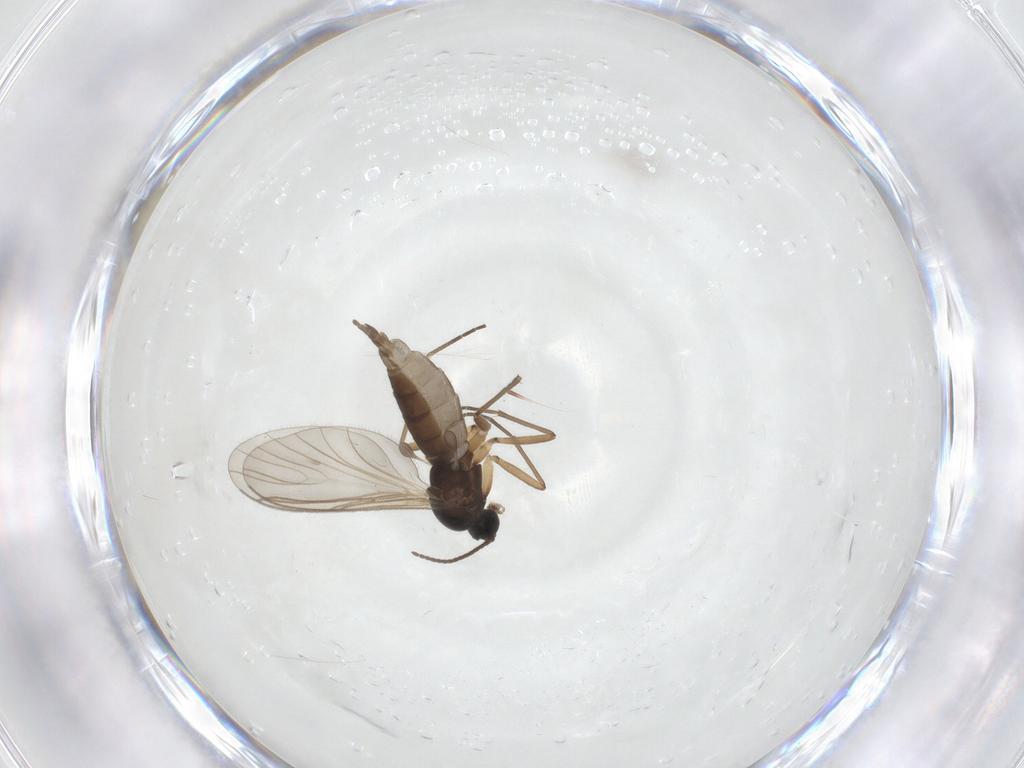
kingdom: Animalia
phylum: Arthropoda
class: Insecta
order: Diptera
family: Sciaridae
